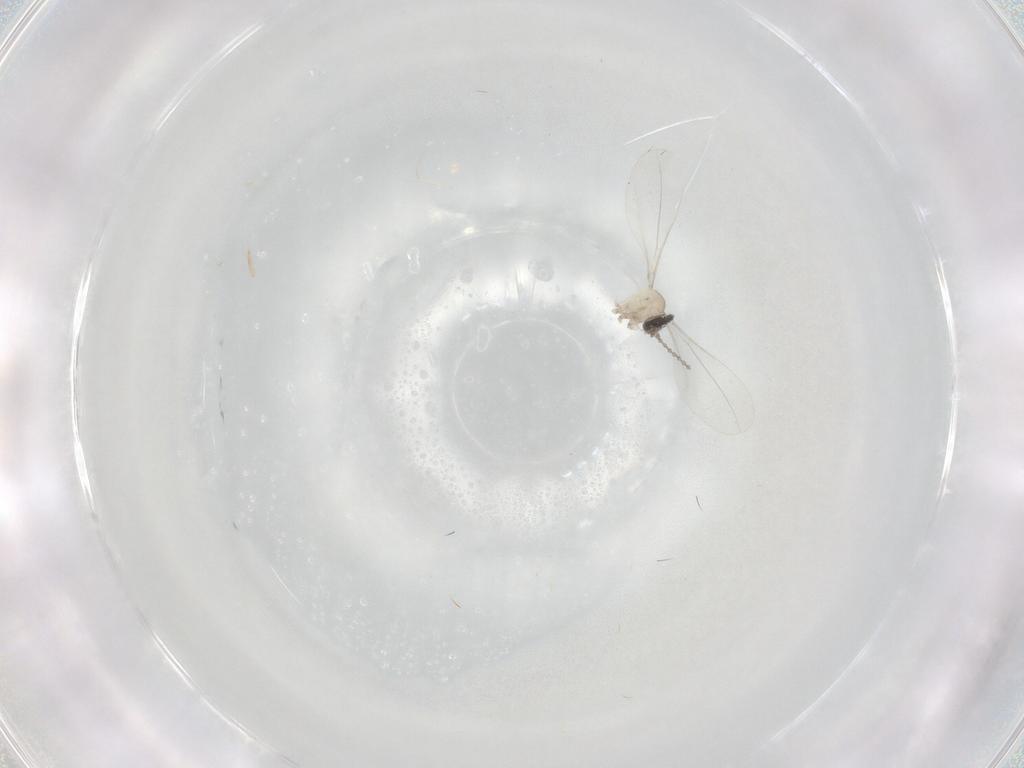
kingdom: Animalia
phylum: Arthropoda
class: Insecta
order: Diptera
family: Cecidomyiidae
